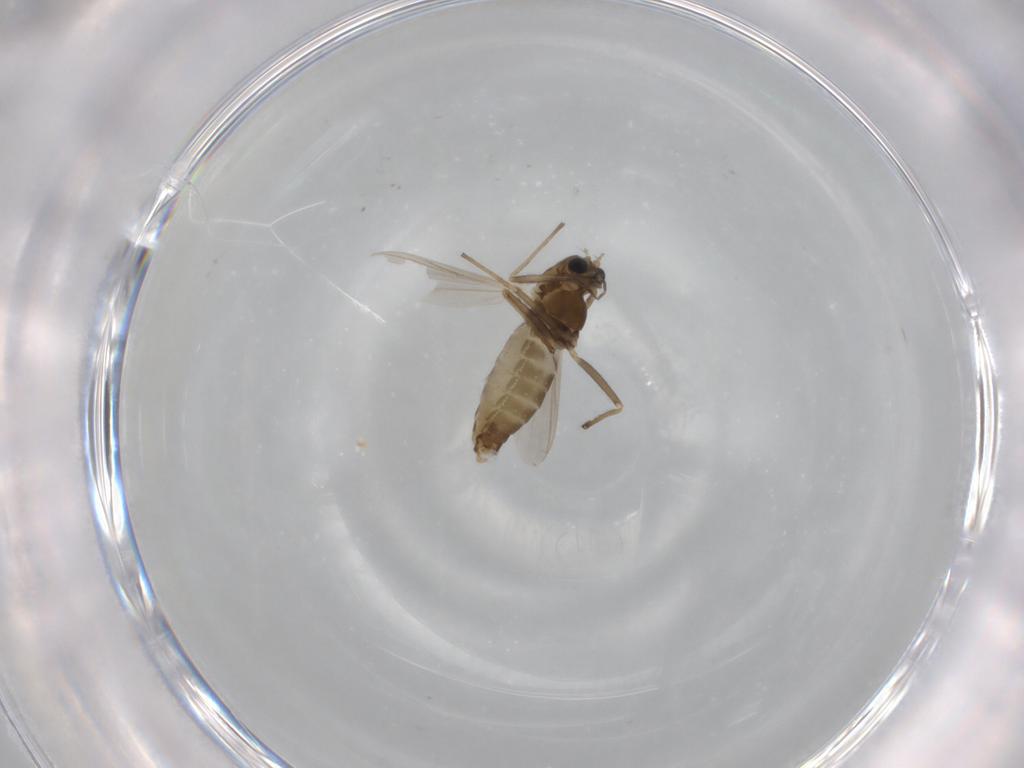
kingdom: Animalia
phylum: Arthropoda
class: Insecta
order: Diptera
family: Chironomidae
